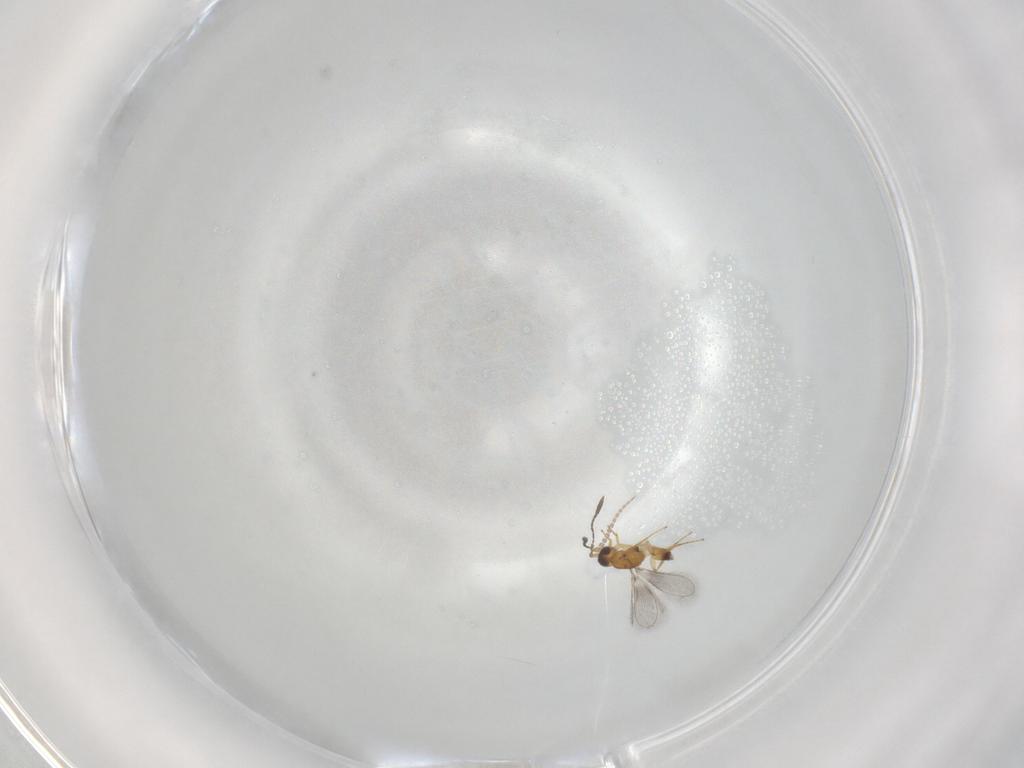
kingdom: Animalia
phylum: Arthropoda
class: Insecta
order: Hymenoptera
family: Mymaridae
